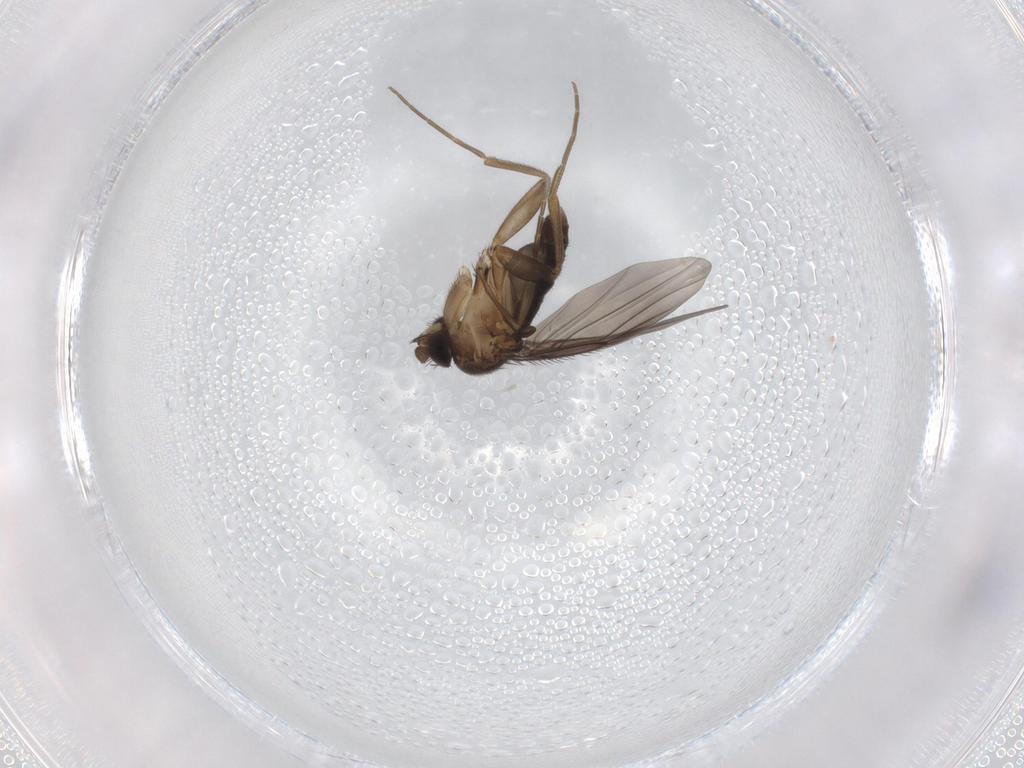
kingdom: Animalia
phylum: Arthropoda
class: Insecta
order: Diptera
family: Phoridae
